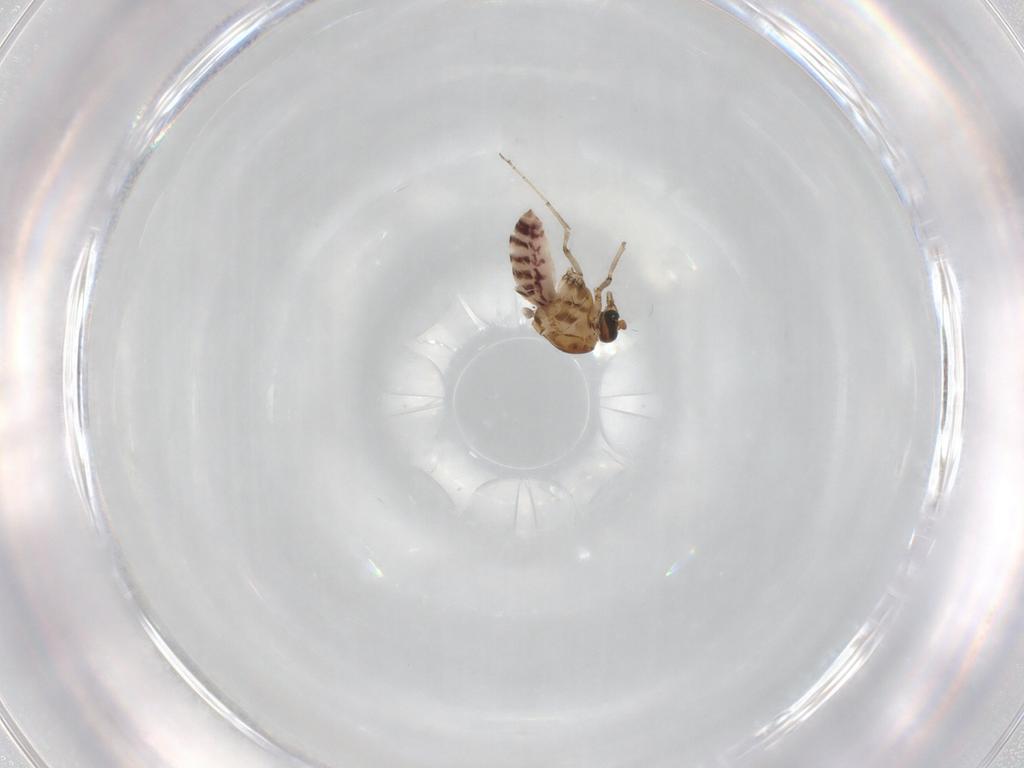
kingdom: Animalia
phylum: Arthropoda
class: Insecta
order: Diptera
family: Ceratopogonidae
